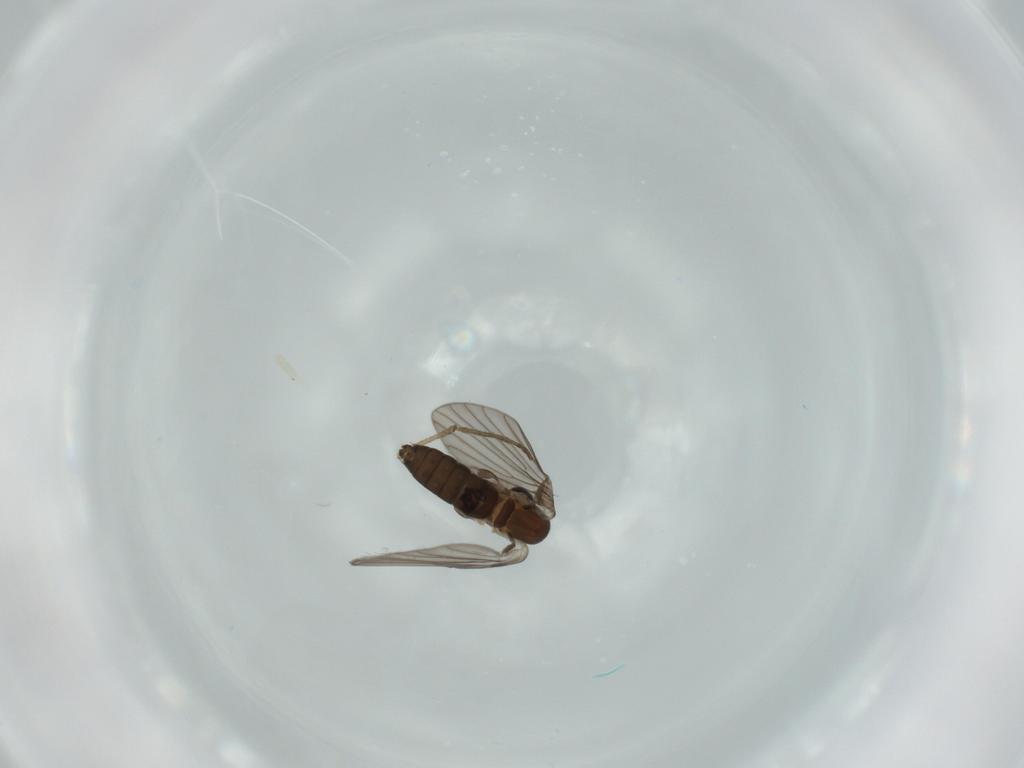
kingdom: Animalia
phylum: Arthropoda
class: Insecta
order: Diptera
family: Psychodidae
